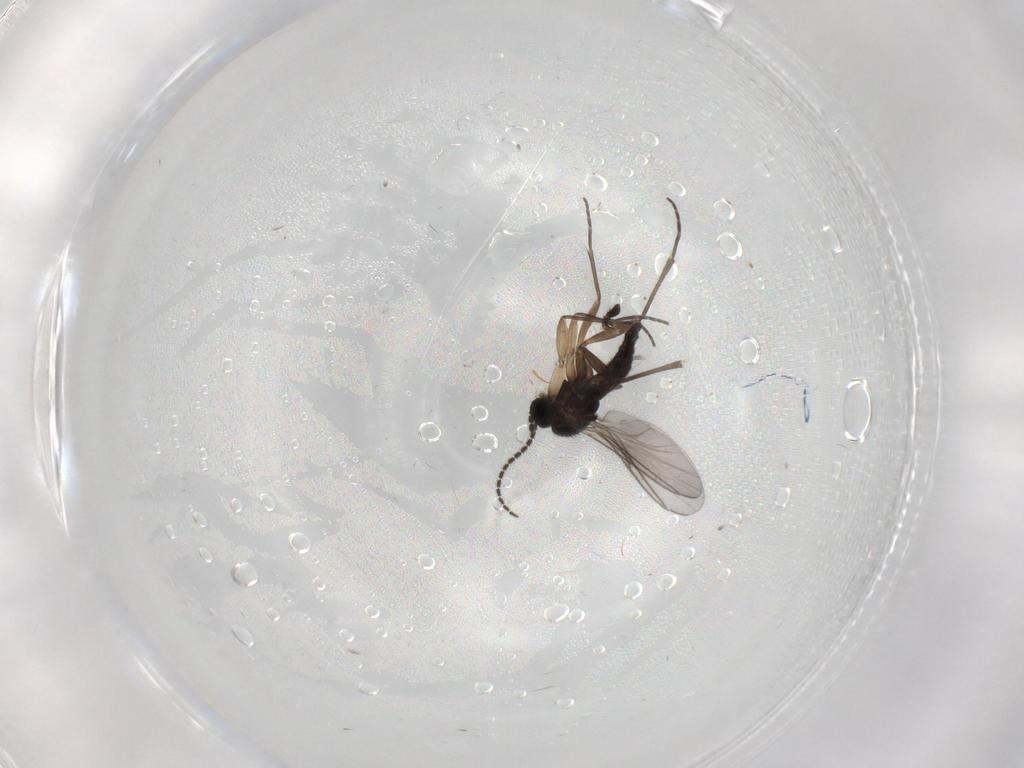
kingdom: Animalia
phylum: Arthropoda
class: Insecta
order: Diptera
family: Sciaridae
